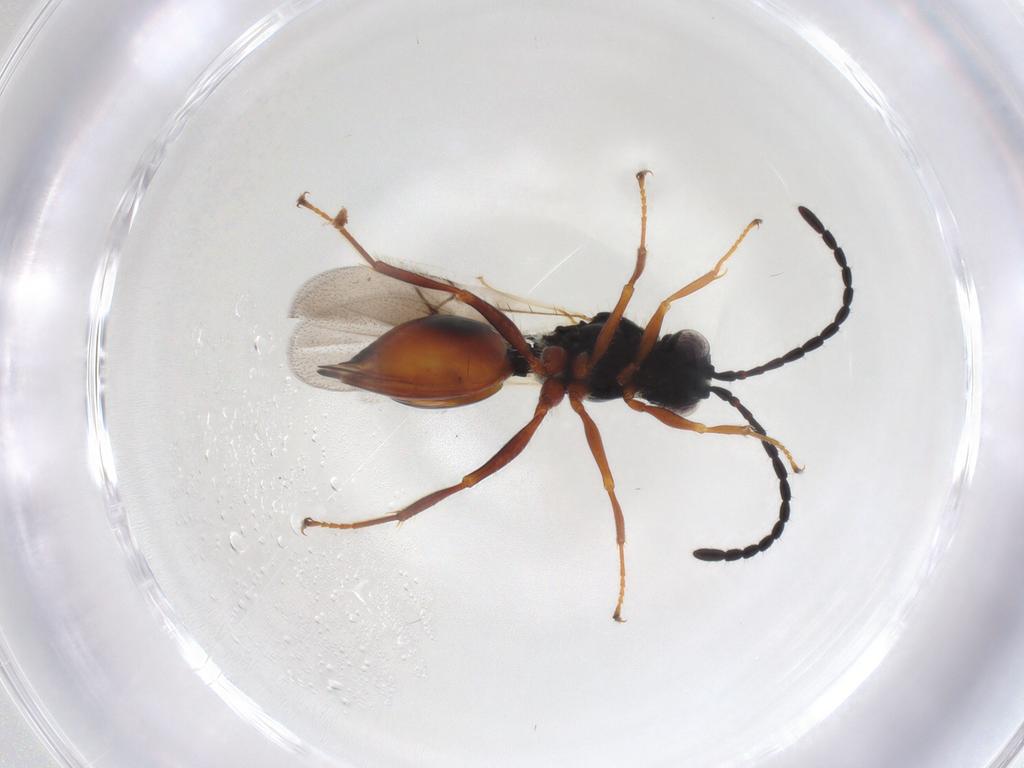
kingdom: Animalia
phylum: Arthropoda
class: Insecta
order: Hymenoptera
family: Figitidae
